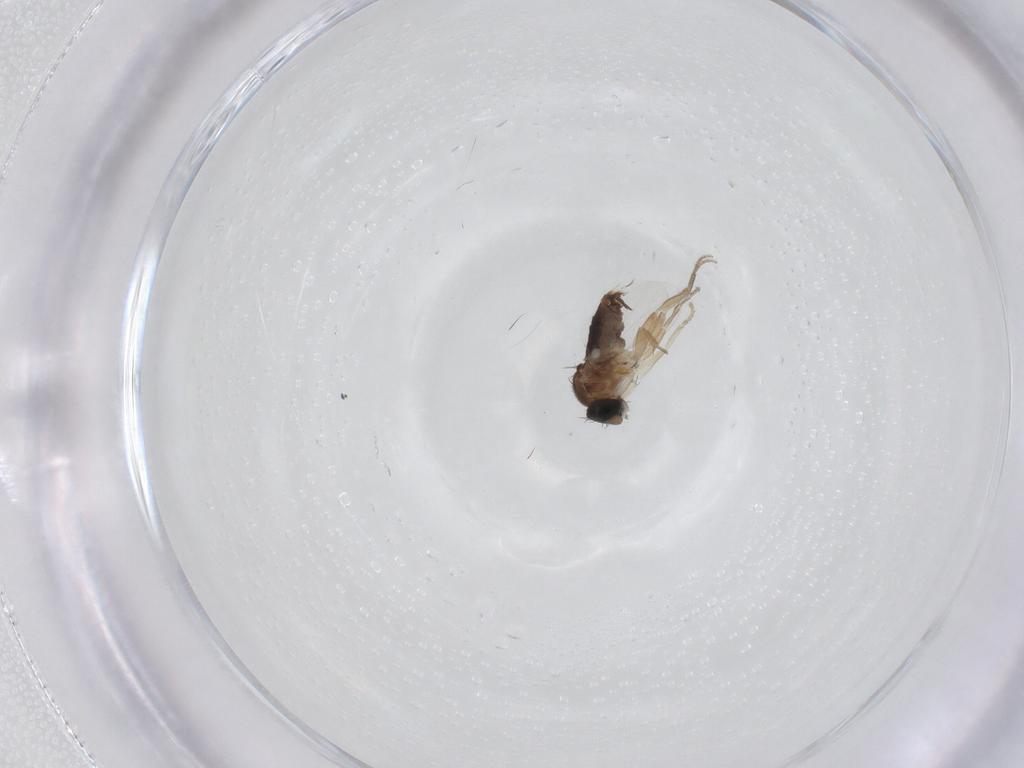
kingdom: Animalia
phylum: Arthropoda
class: Insecta
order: Diptera
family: Phoridae
